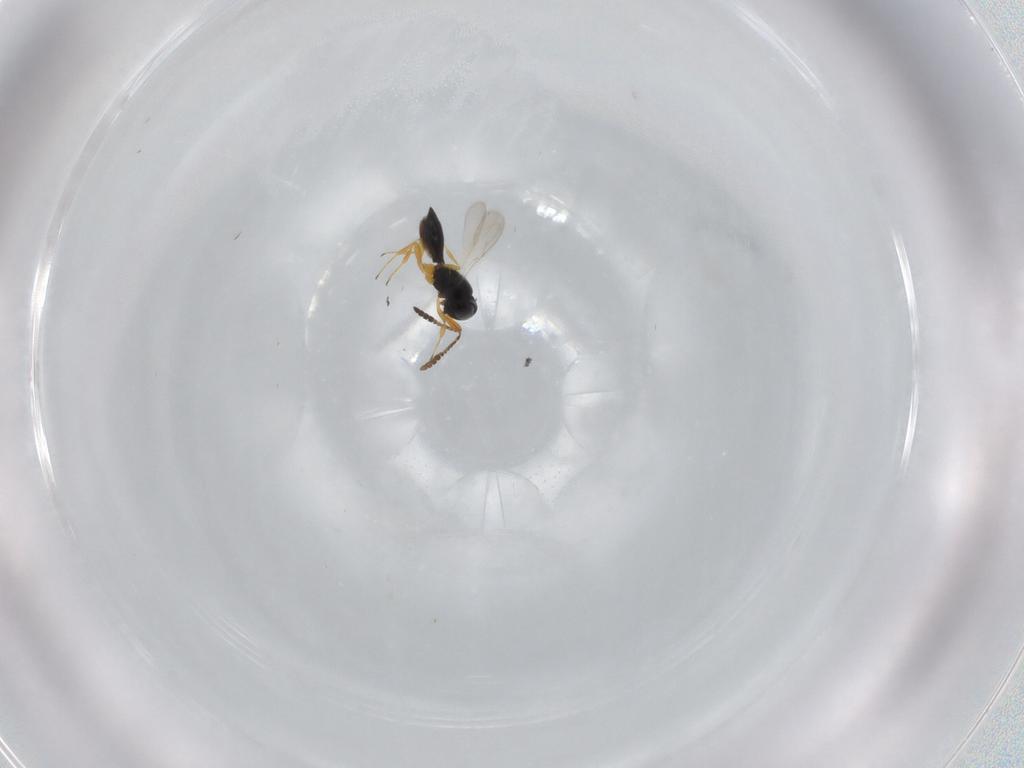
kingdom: Animalia
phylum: Arthropoda
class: Insecta
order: Hymenoptera
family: Scelionidae
